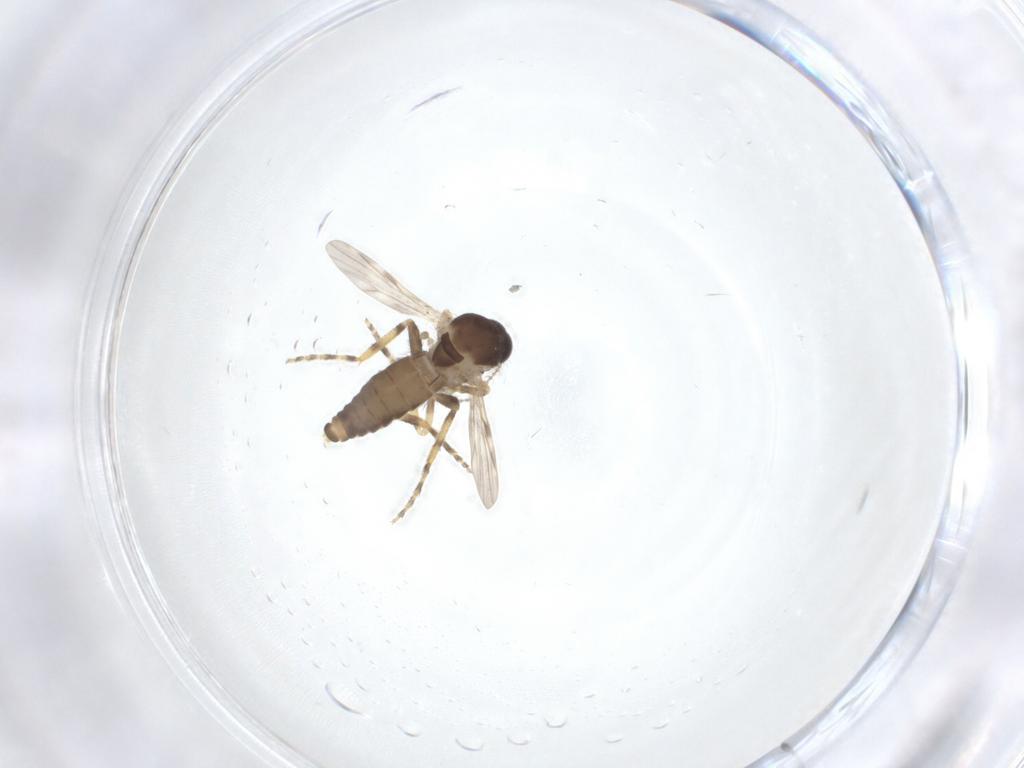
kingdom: Animalia
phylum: Arthropoda
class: Insecta
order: Diptera
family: Ceratopogonidae
